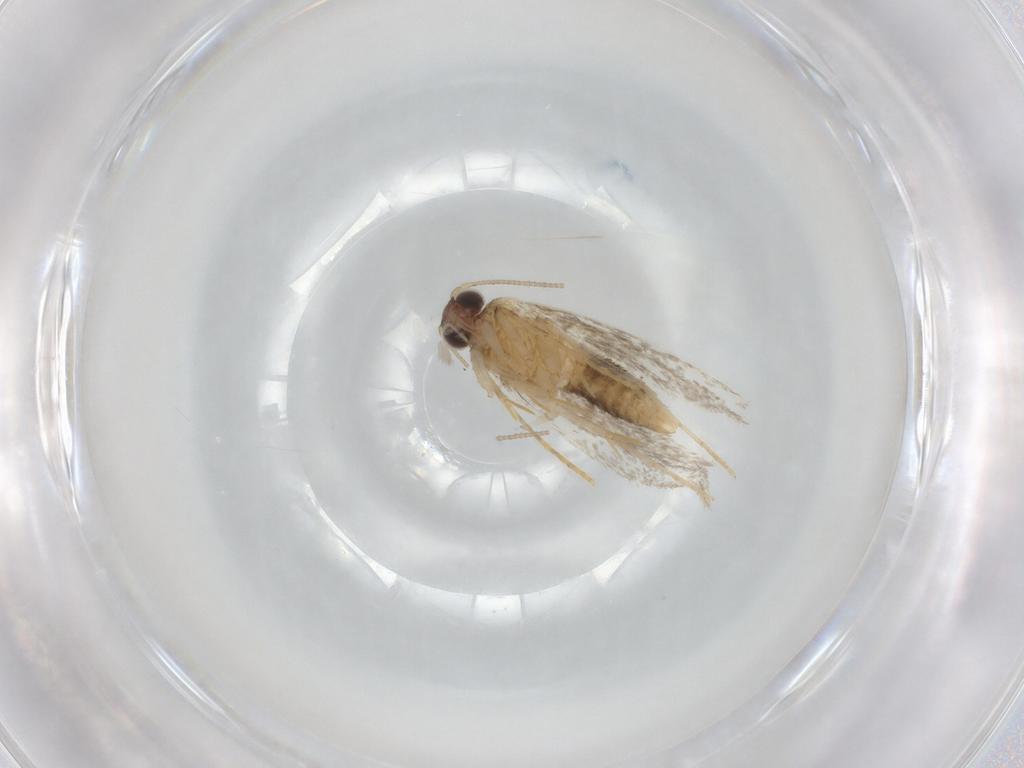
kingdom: Animalia
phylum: Arthropoda
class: Insecta
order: Lepidoptera
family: Tineidae
